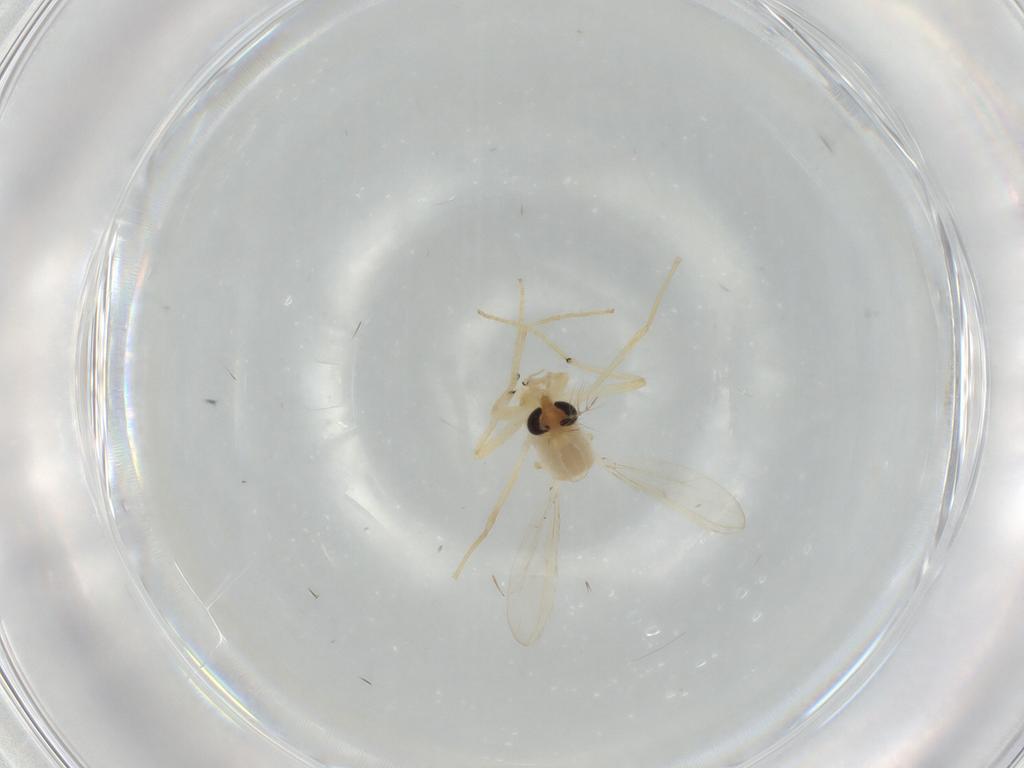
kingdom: Animalia
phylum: Arthropoda
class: Insecta
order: Diptera
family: Chironomidae
